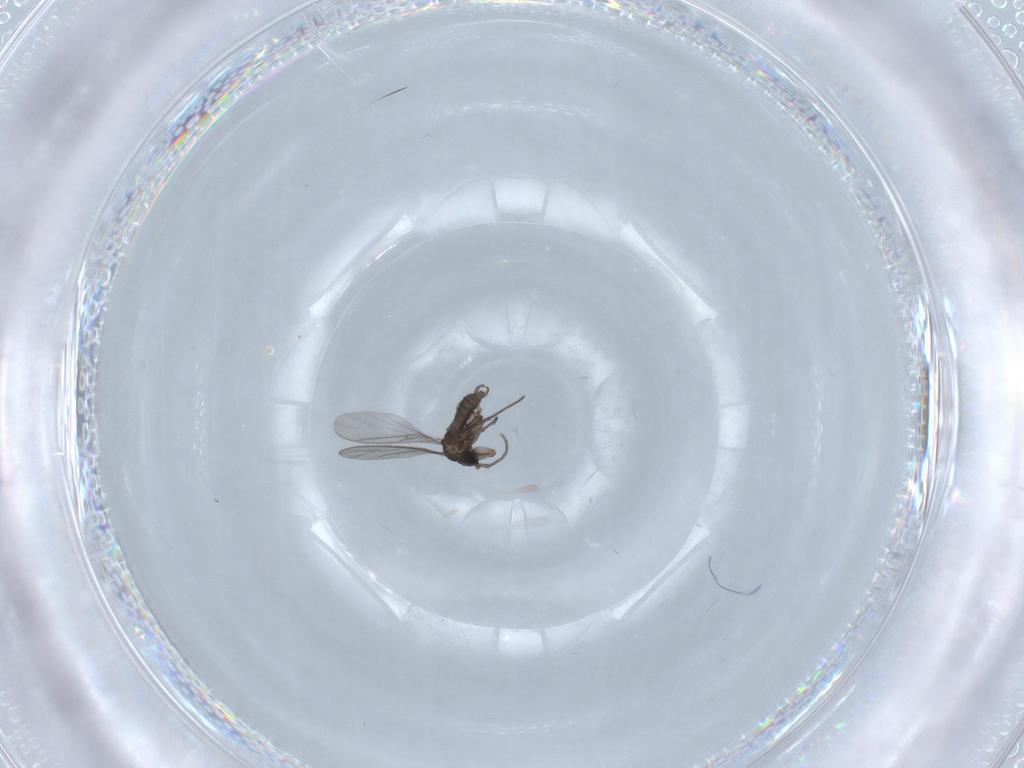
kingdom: Animalia
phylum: Arthropoda
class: Insecta
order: Diptera
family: Sciaridae
